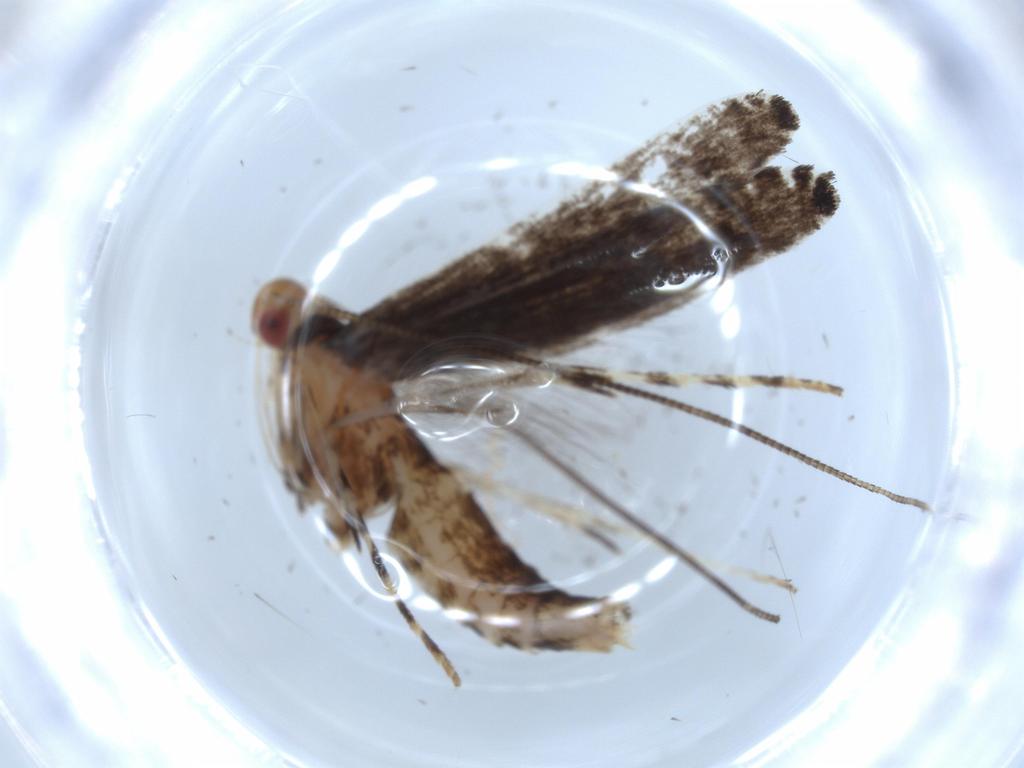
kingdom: Animalia
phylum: Arthropoda
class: Insecta
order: Lepidoptera
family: Gracillariidae
